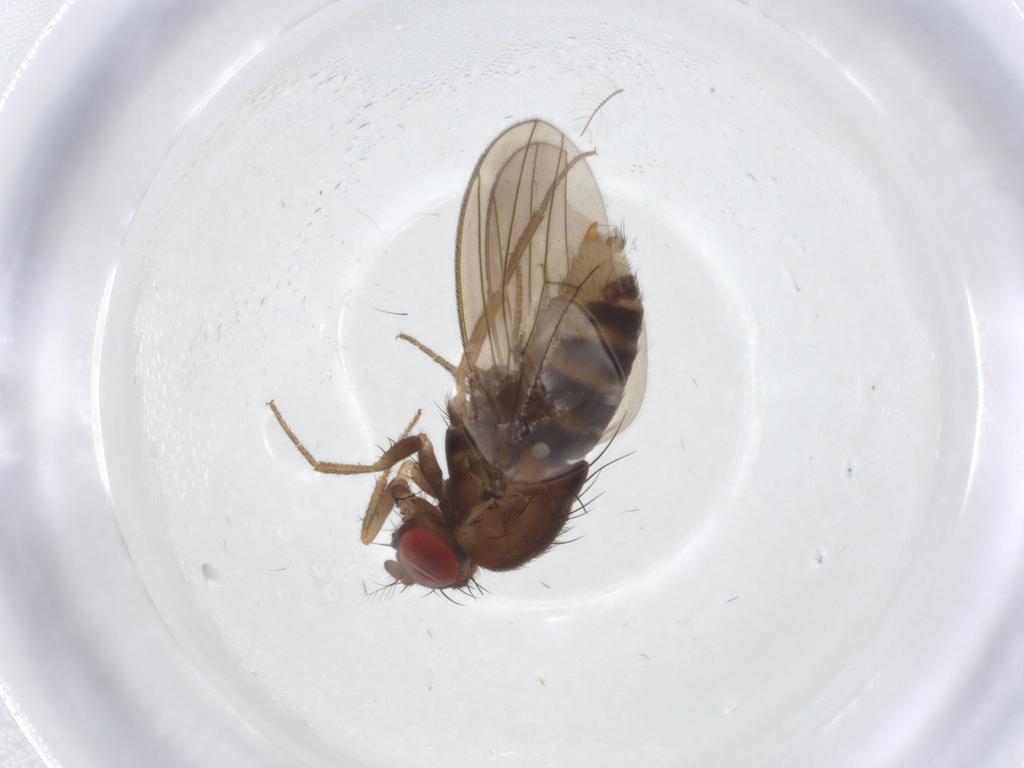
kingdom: Animalia
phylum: Arthropoda
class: Insecta
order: Diptera
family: Drosophilidae
